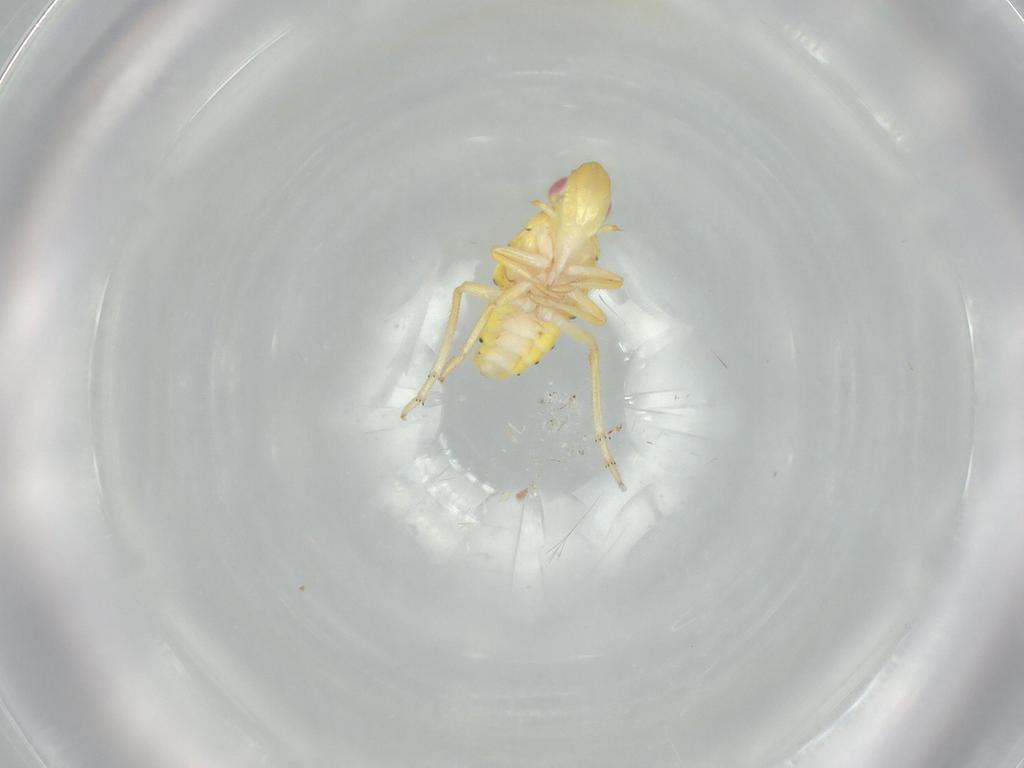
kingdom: Animalia
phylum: Arthropoda
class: Insecta
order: Hemiptera
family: Tropiduchidae
